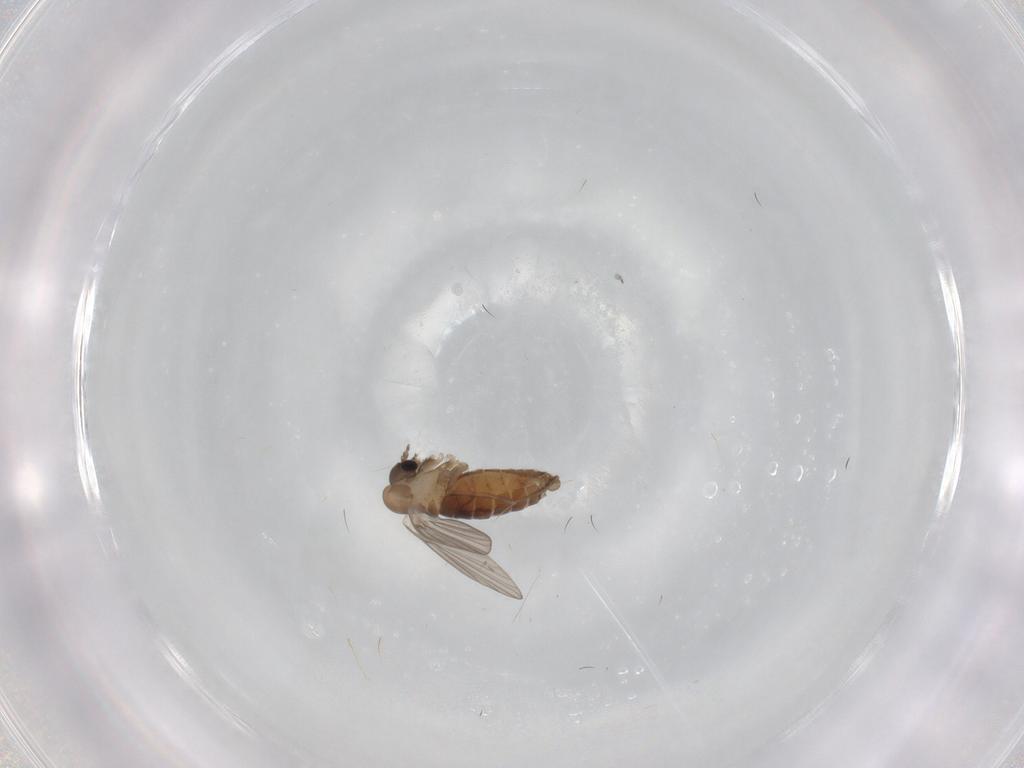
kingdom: Animalia
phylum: Arthropoda
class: Insecta
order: Diptera
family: Psychodidae
